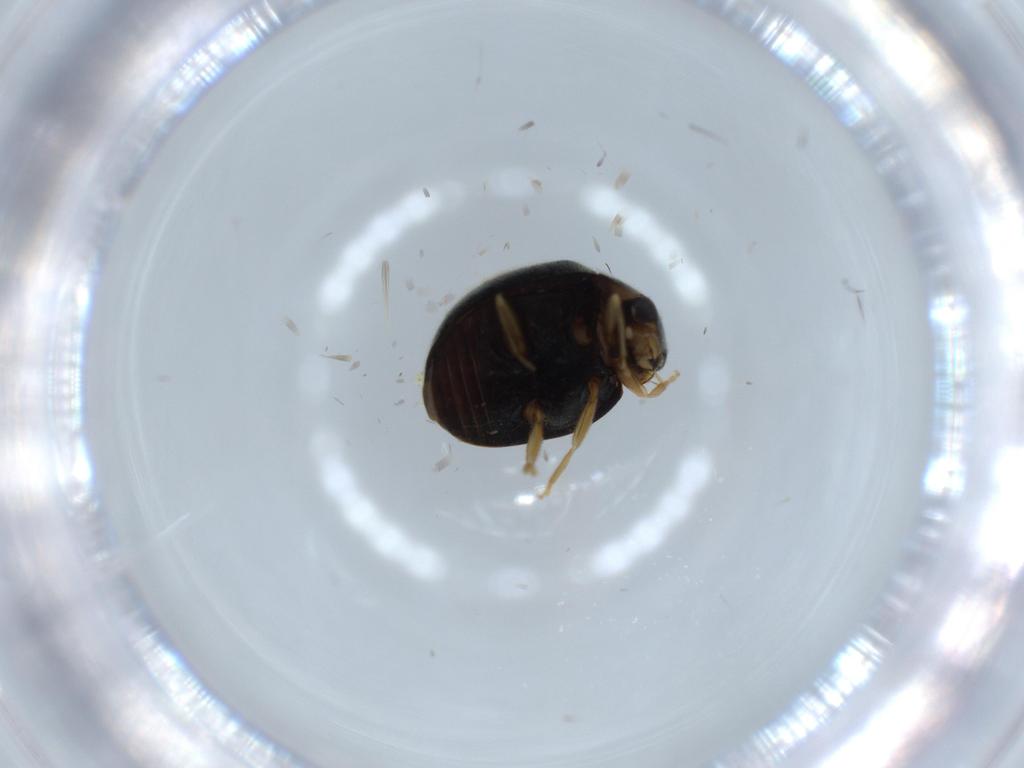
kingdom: Animalia
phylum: Arthropoda
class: Insecta
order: Coleoptera
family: Coccinellidae
